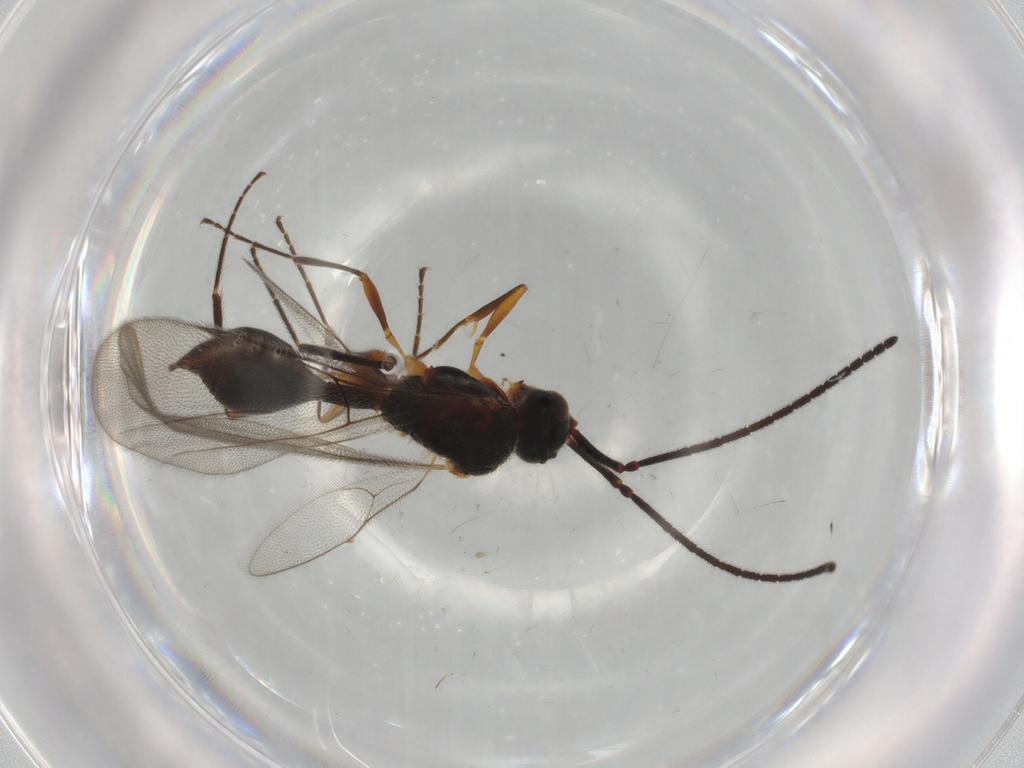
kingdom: Animalia
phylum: Arthropoda
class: Insecta
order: Hymenoptera
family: Diapriidae
